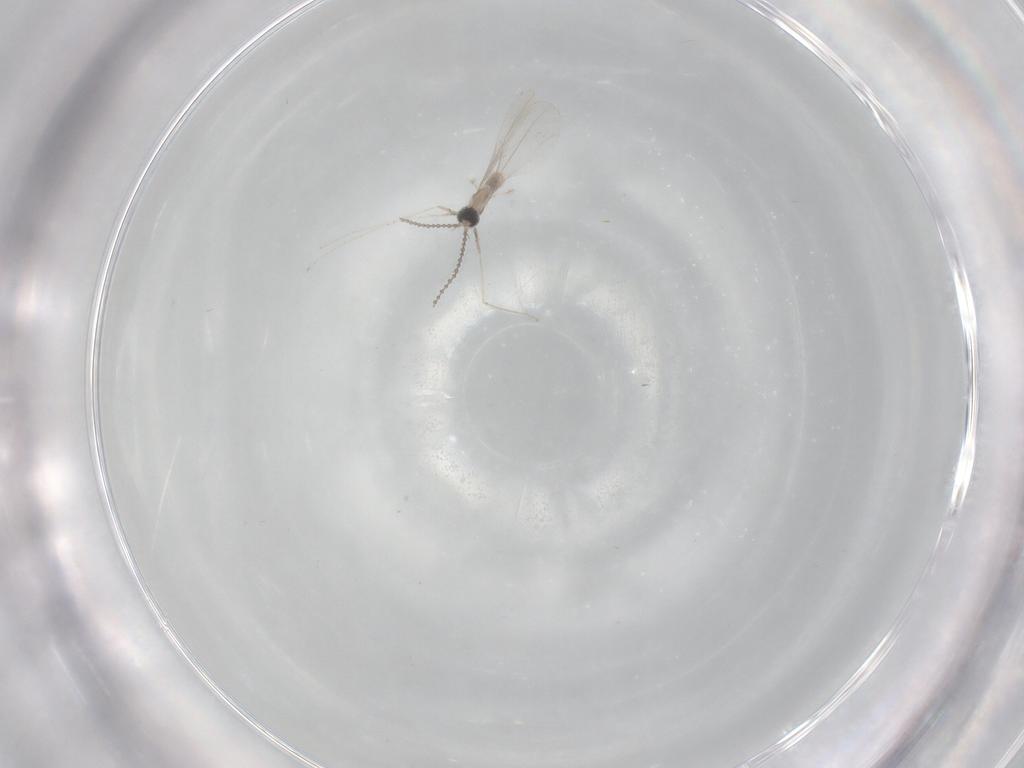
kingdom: Animalia
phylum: Arthropoda
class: Insecta
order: Diptera
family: Cecidomyiidae
